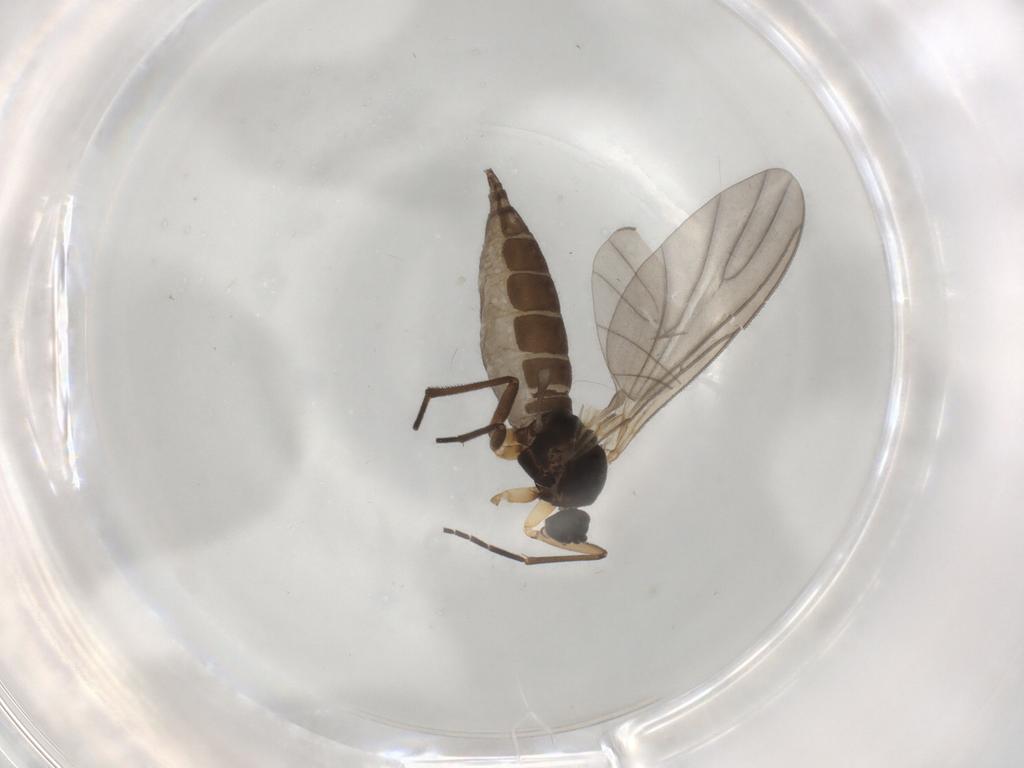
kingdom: Animalia
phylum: Arthropoda
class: Insecta
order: Diptera
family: Sciaridae
